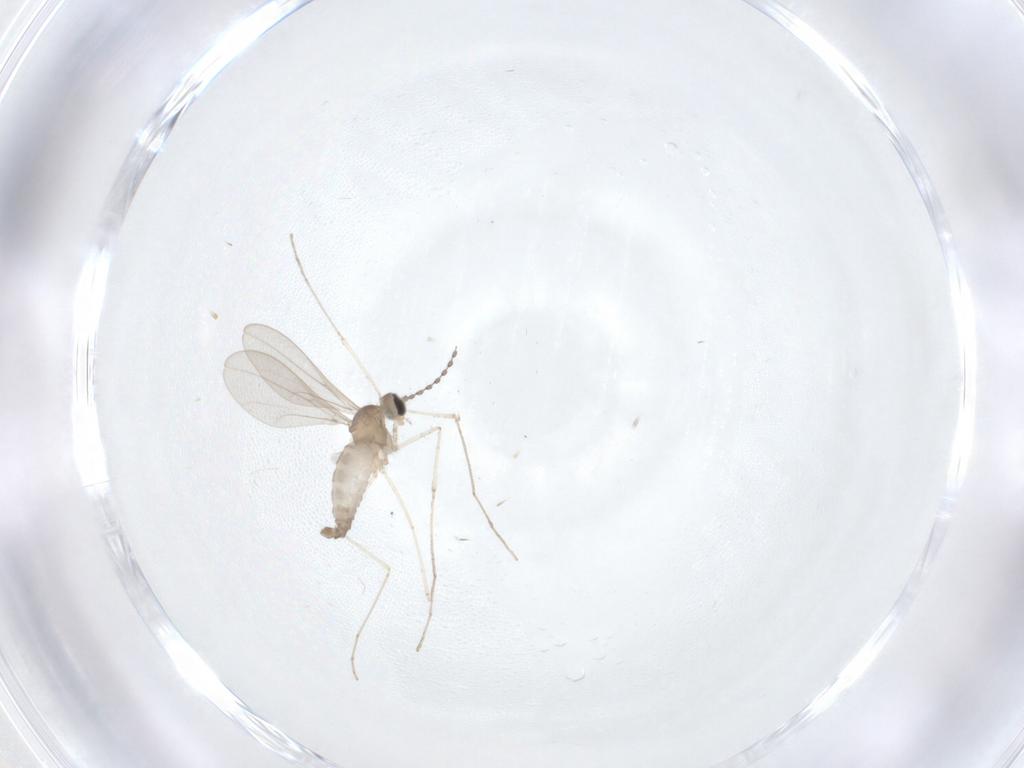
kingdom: Animalia
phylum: Arthropoda
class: Insecta
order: Diptera
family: Cecidomyiidae
